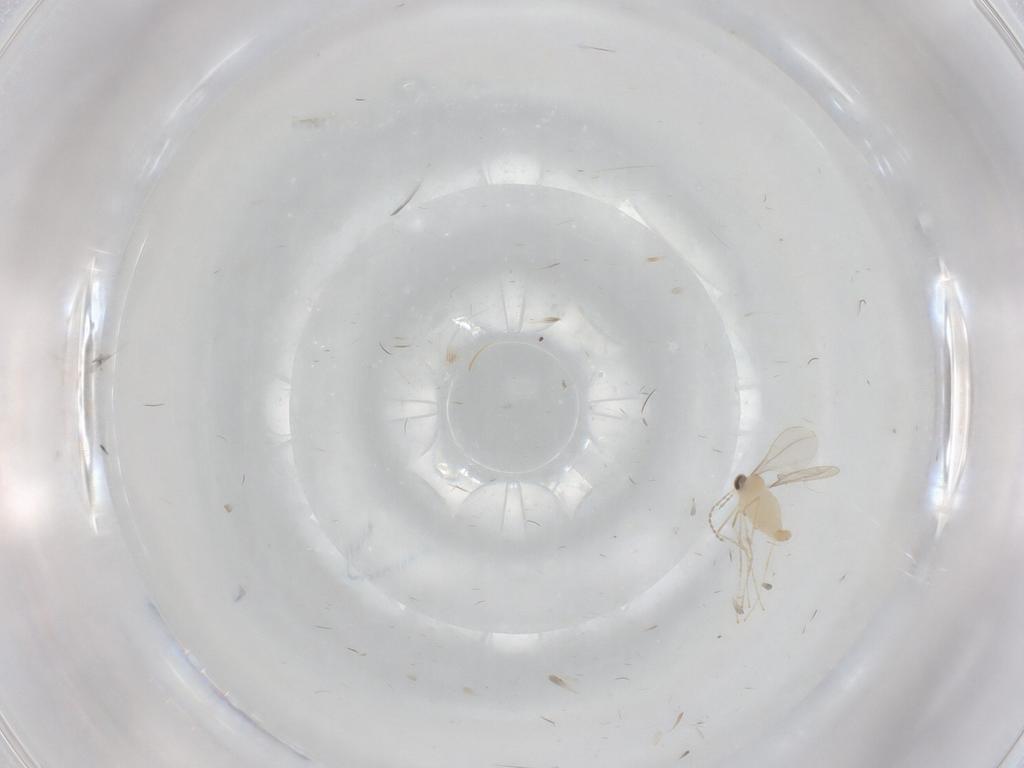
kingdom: Animalia
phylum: Arthropoda
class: Insecta
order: Diptera
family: Cecidomyiidae
